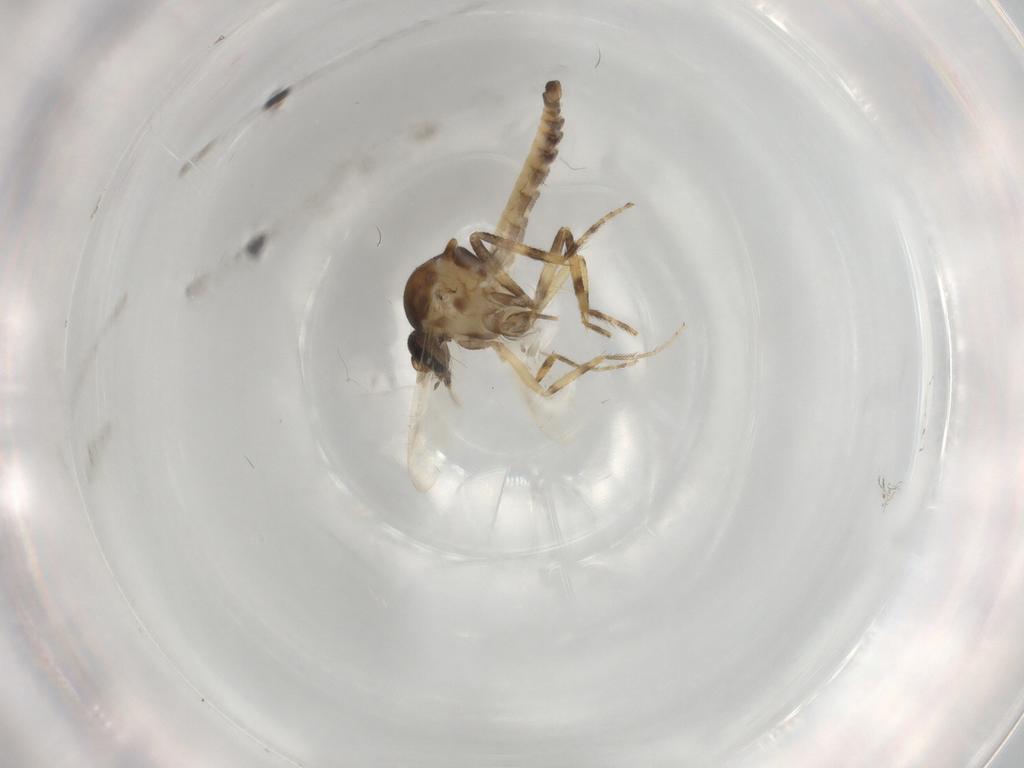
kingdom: Animalia
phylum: Arthropoda
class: Insecta
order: Diptera
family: Ceratopogonidae
